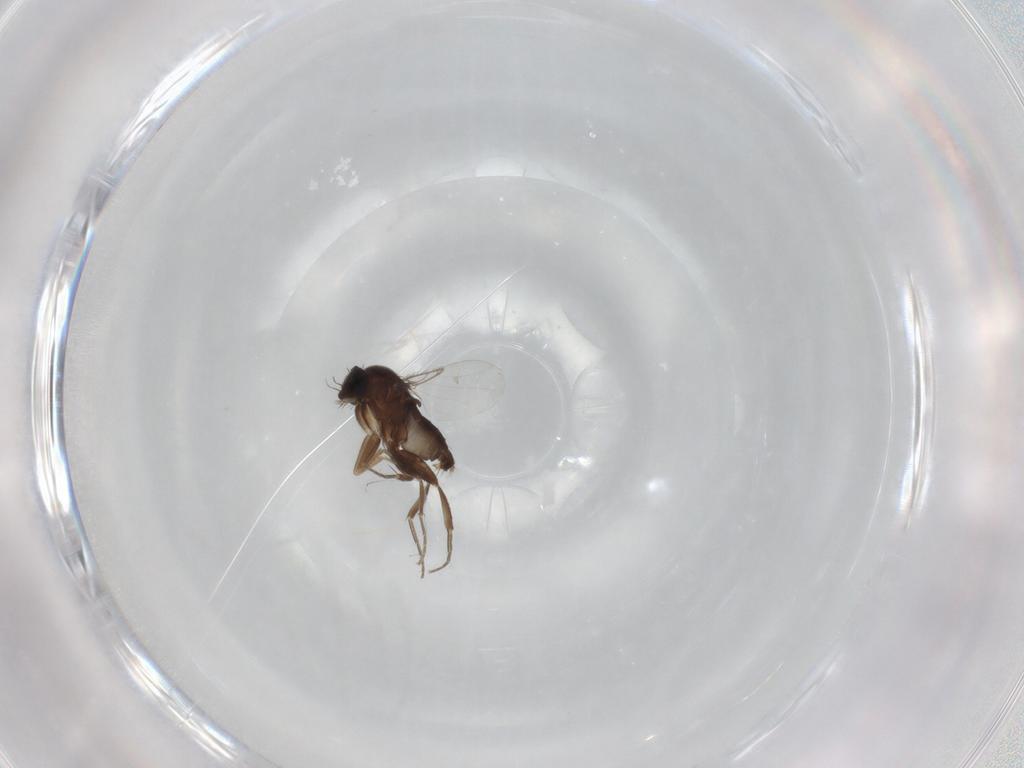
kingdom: Animalia
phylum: Arthropoda
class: Insecta
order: Diptera
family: Phoridae
